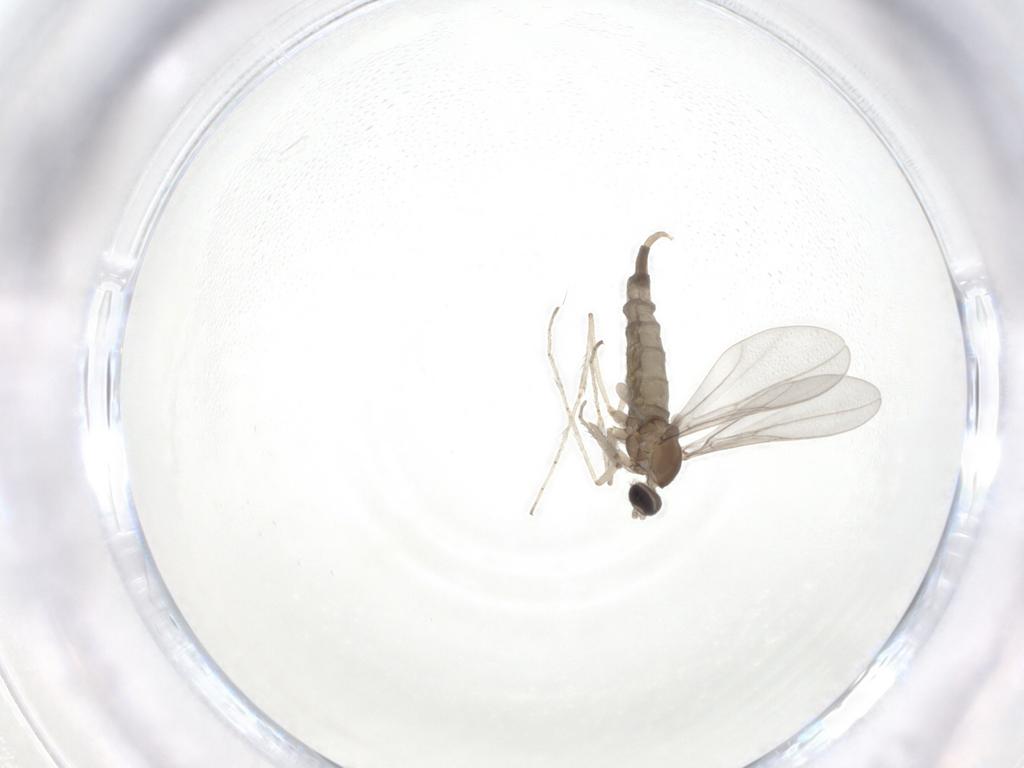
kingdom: Animalia
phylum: Arthropoda
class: Insecta
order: Diptera
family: Cecidomyiidae
